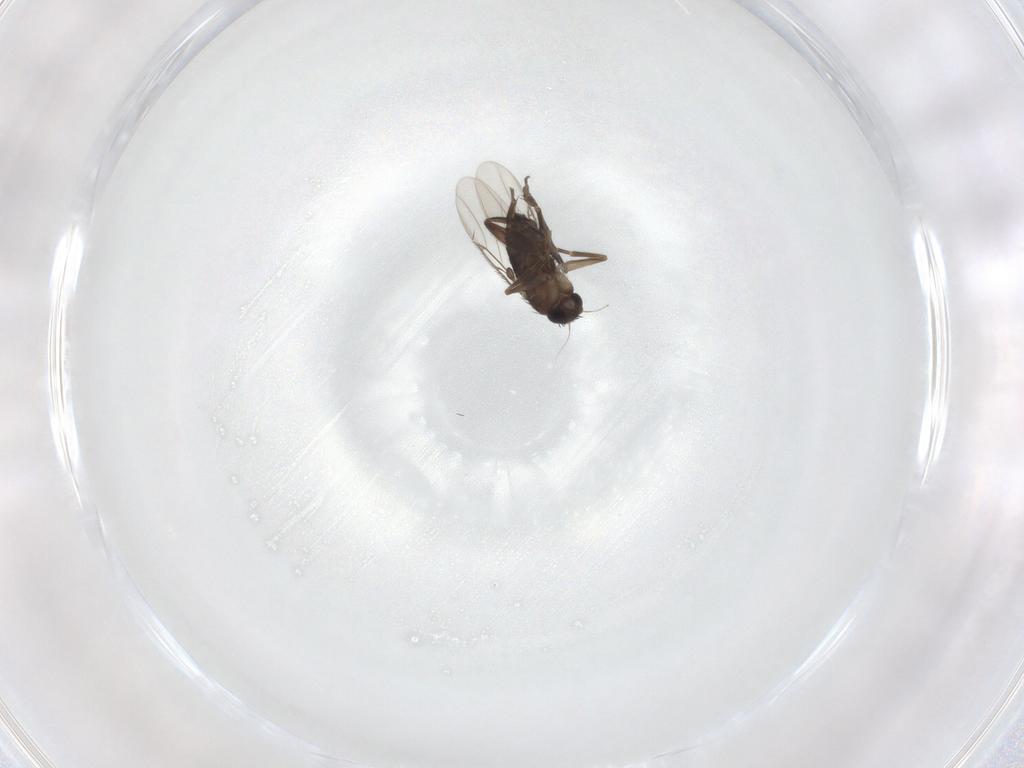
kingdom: Animalia
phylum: Arthropoda
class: Insecta
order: Diptera
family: Phoridae
